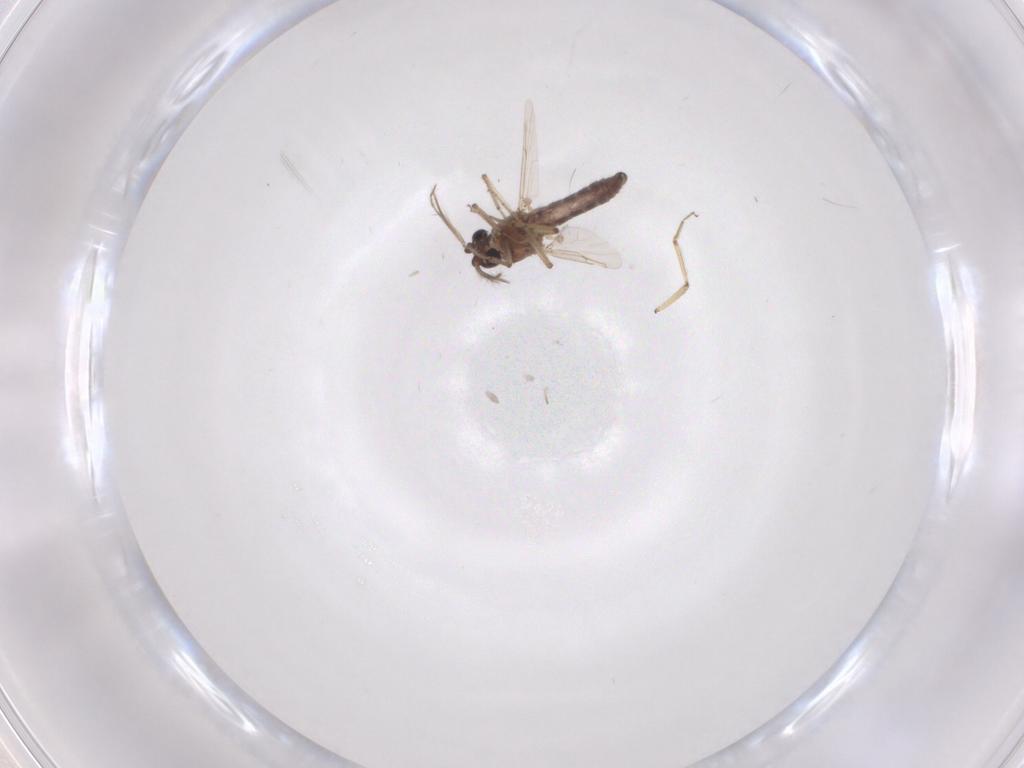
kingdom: Animalia
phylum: Arthropoda
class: Insecta
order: Diptera
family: Ceratopogonidae
